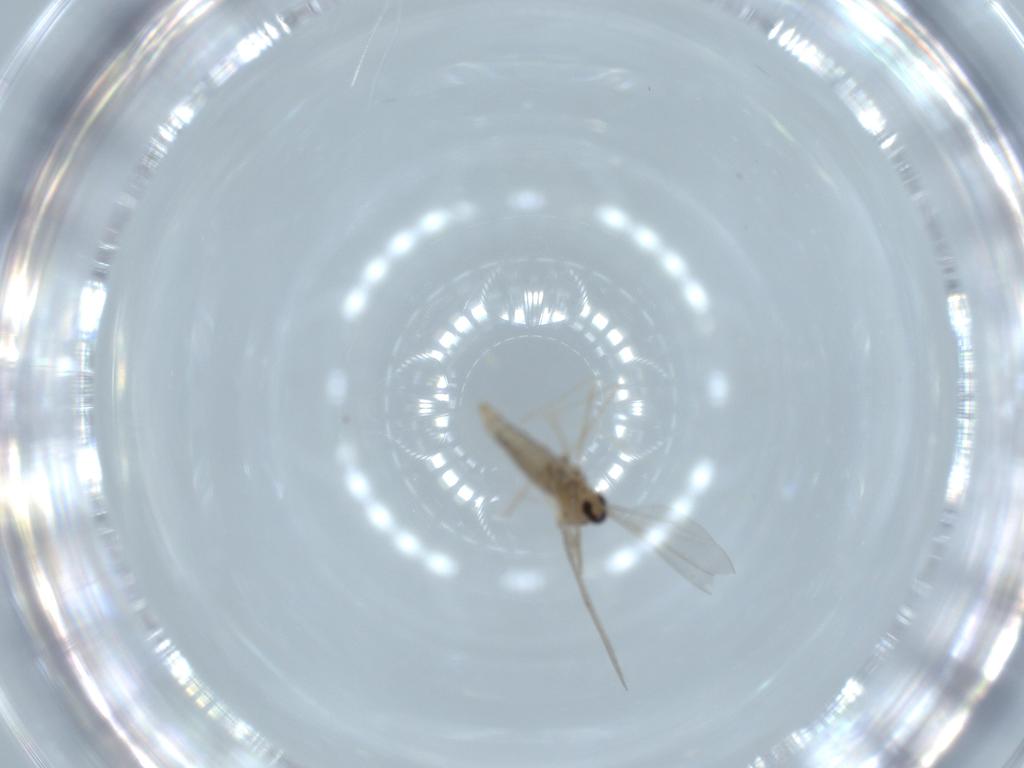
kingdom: Animalia
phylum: Arthropoda
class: Insecta
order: Diptera
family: Cecidomyiidae
